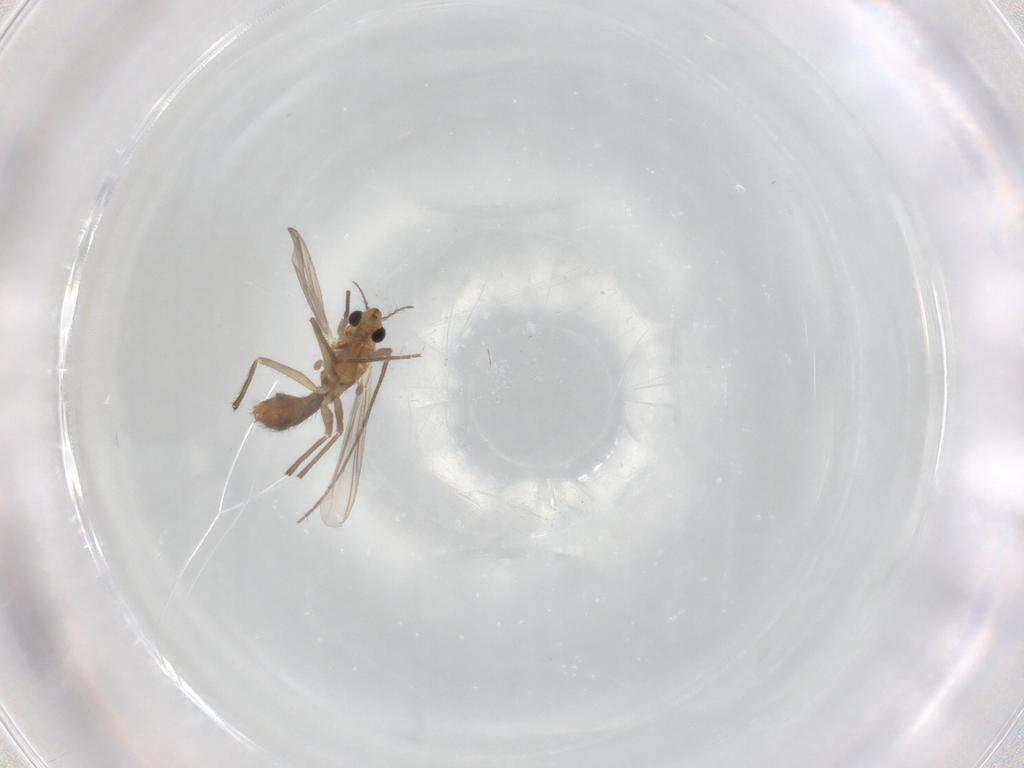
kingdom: Animalia
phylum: Arthropoda
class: Insecta
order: Diptera
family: Chironomidae
